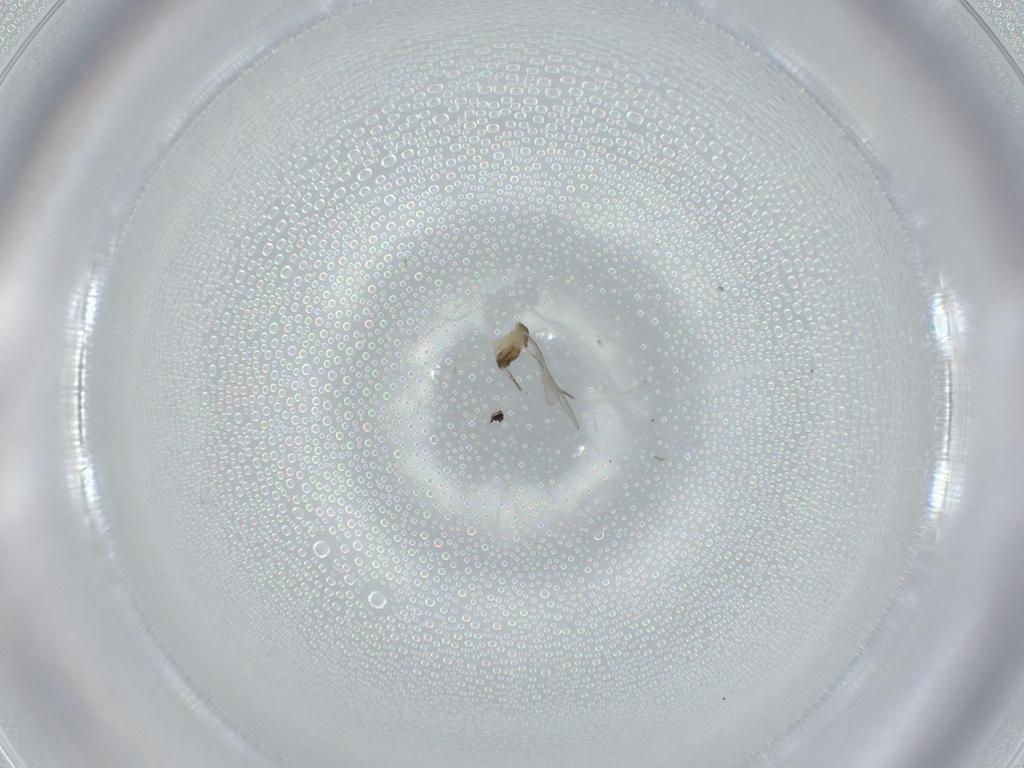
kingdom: Animalia
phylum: Arthropoda
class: Insecta
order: Diptera
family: Cecidomyiidae
